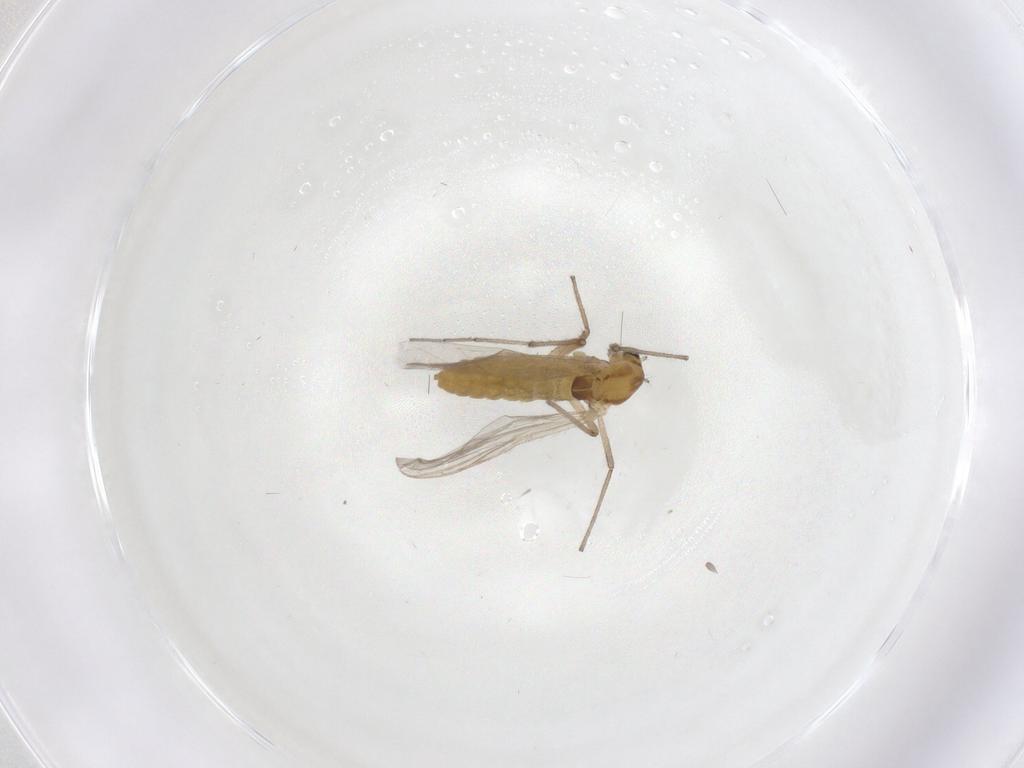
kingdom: Animalia
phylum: Arthropoda
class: Insecta
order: Diptera
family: Chironomidae
